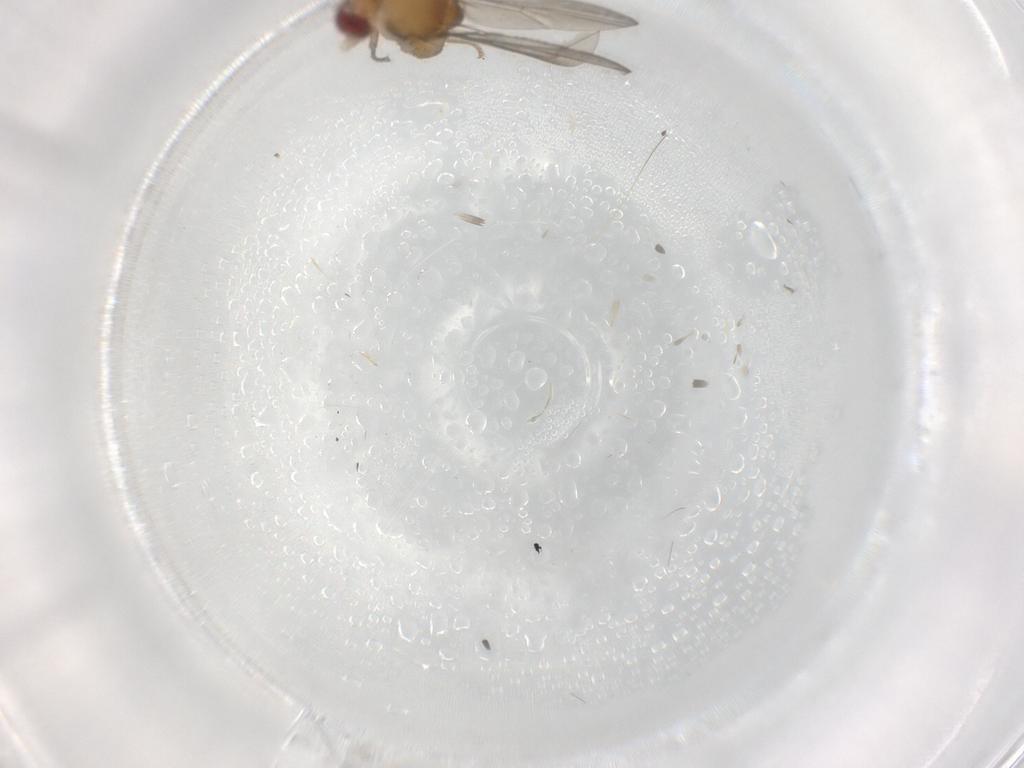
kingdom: Animalia
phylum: Arthropoda
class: Insecta
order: Diptera
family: Drosophilidae
